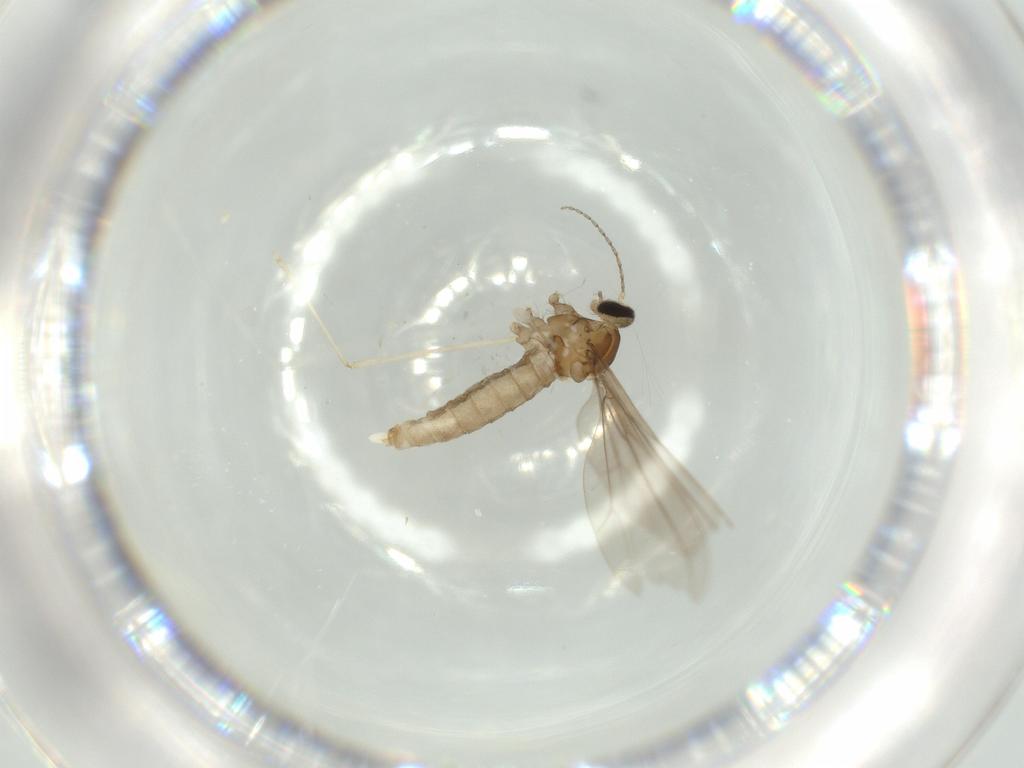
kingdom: Animalia
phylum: Arthropoda
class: Insecta
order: Diptera
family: Cecidomyiidae
